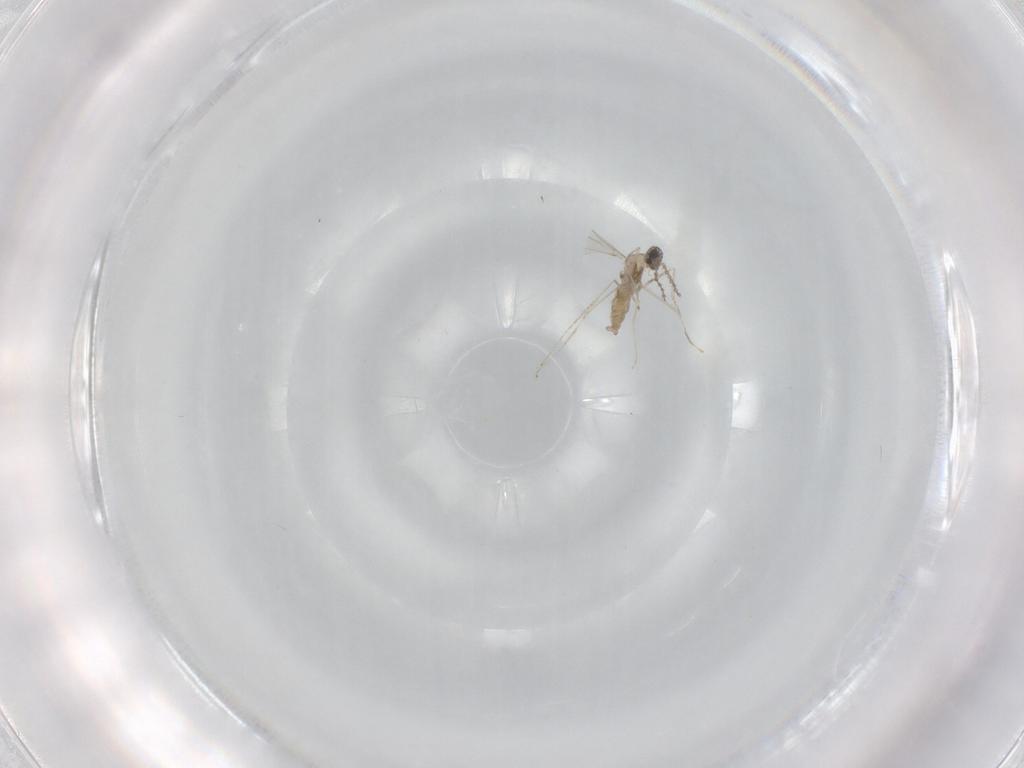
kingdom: Animalia
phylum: Arthropoda
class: Insecta
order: Diptera
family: Cecidomyiidae
